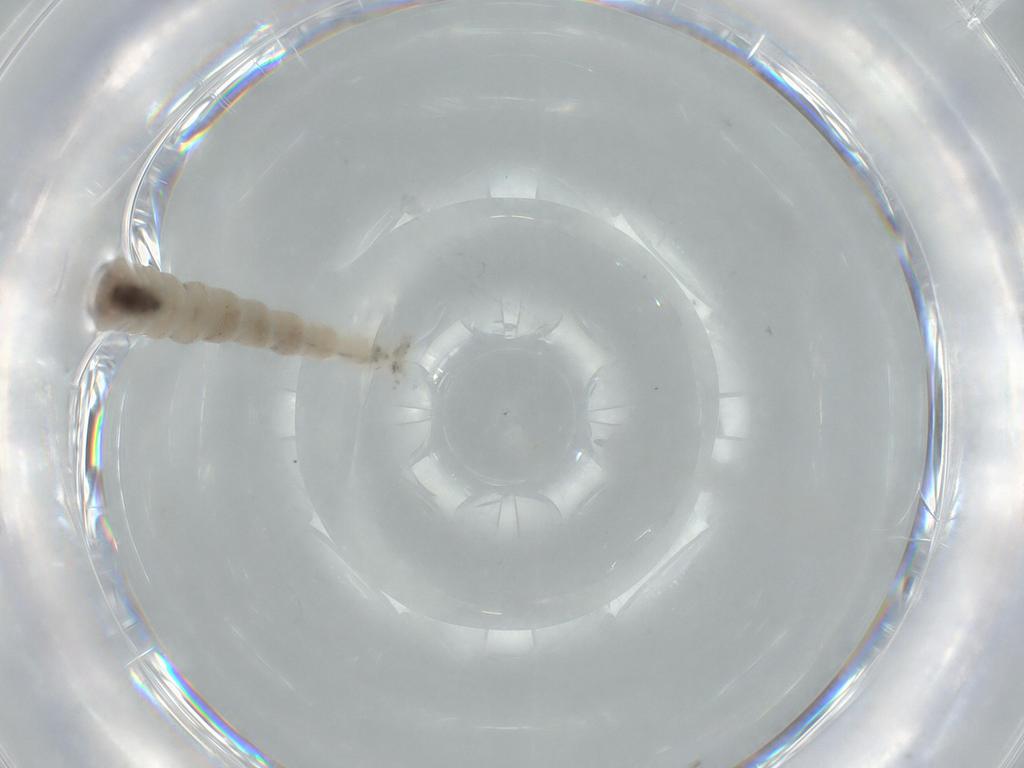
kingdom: Animalia
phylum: Arthropoda
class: Insecta
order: Diptera
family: Ceratopogonidae
